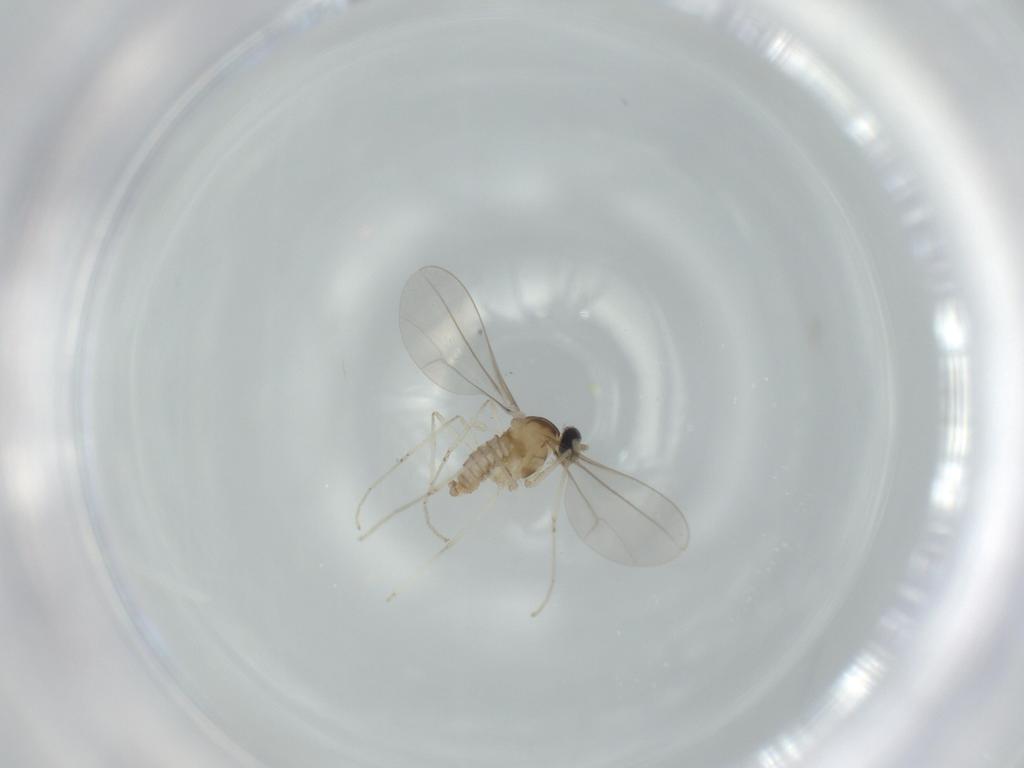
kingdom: Animalia
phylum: Arthropoda
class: Insecta
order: Diptera
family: Cecidomyiidae
